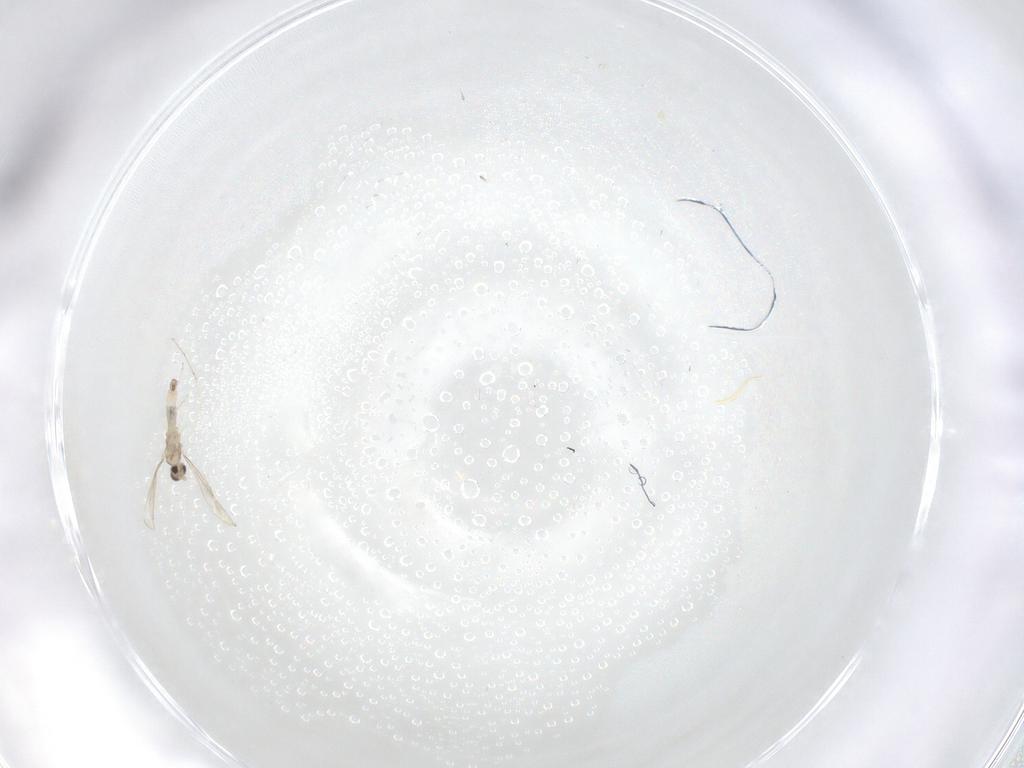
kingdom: Animalia
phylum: Arthropoda
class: Insecta
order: Diptera
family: Cecidomyiidae
